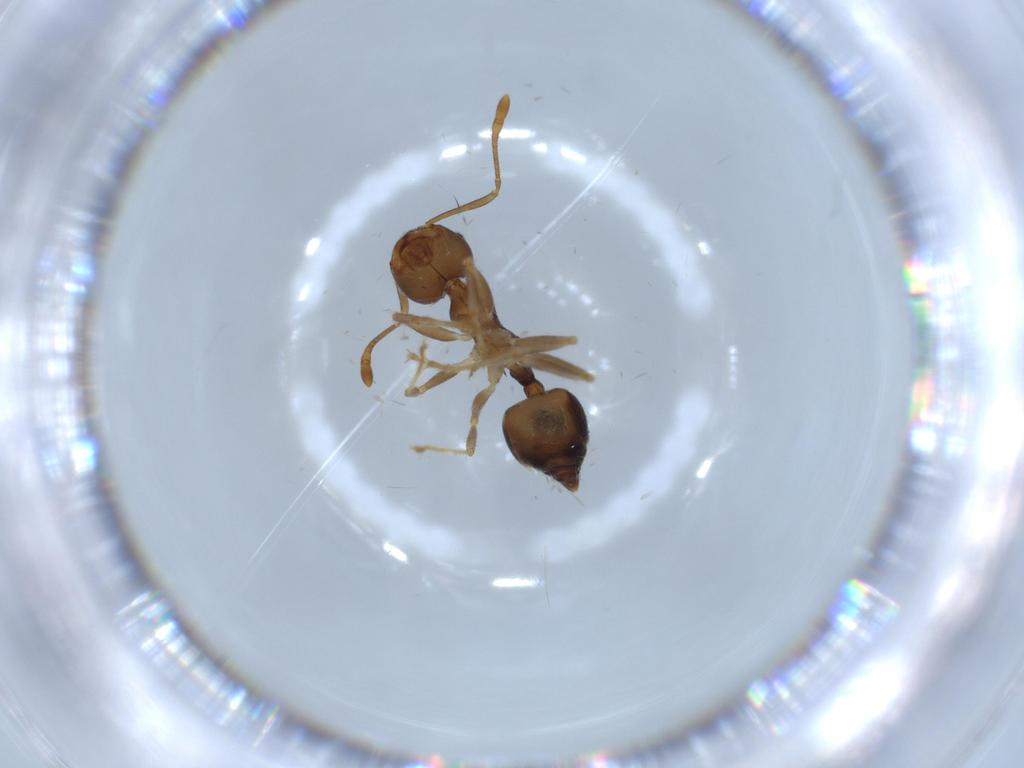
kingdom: Animalia
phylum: Arthropoda
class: Insecta
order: Hymenoptera
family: Formicidae
